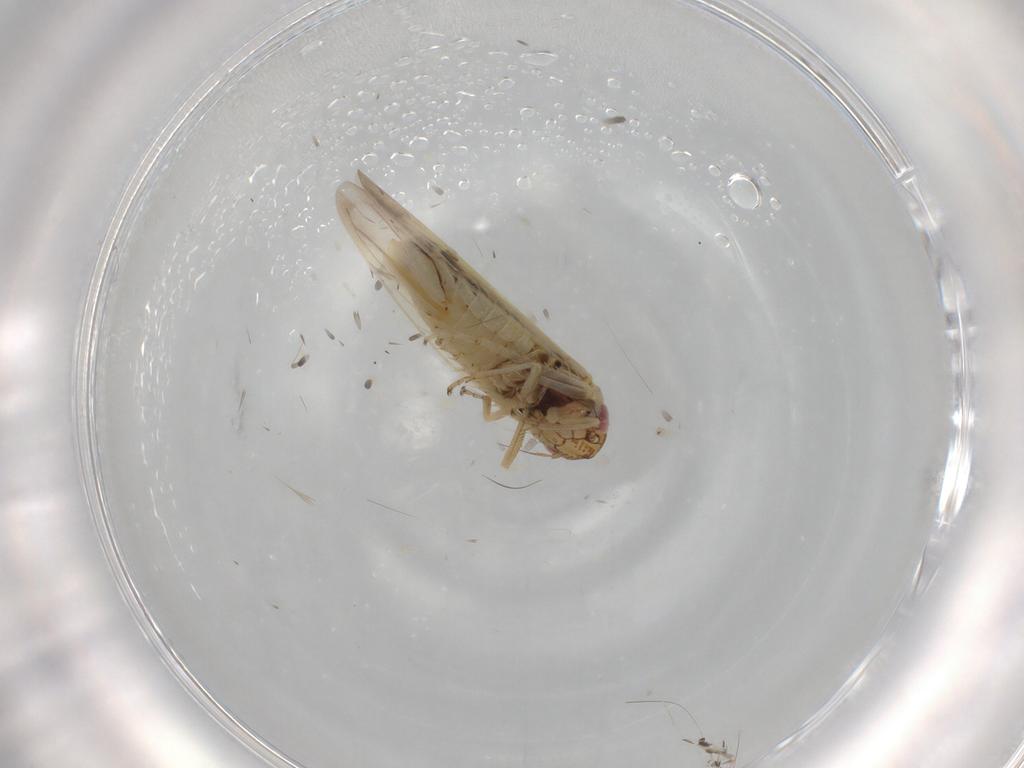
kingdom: Animalia
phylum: Arthropoda
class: Insecta
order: Hemiptera
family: Cicadellidae
